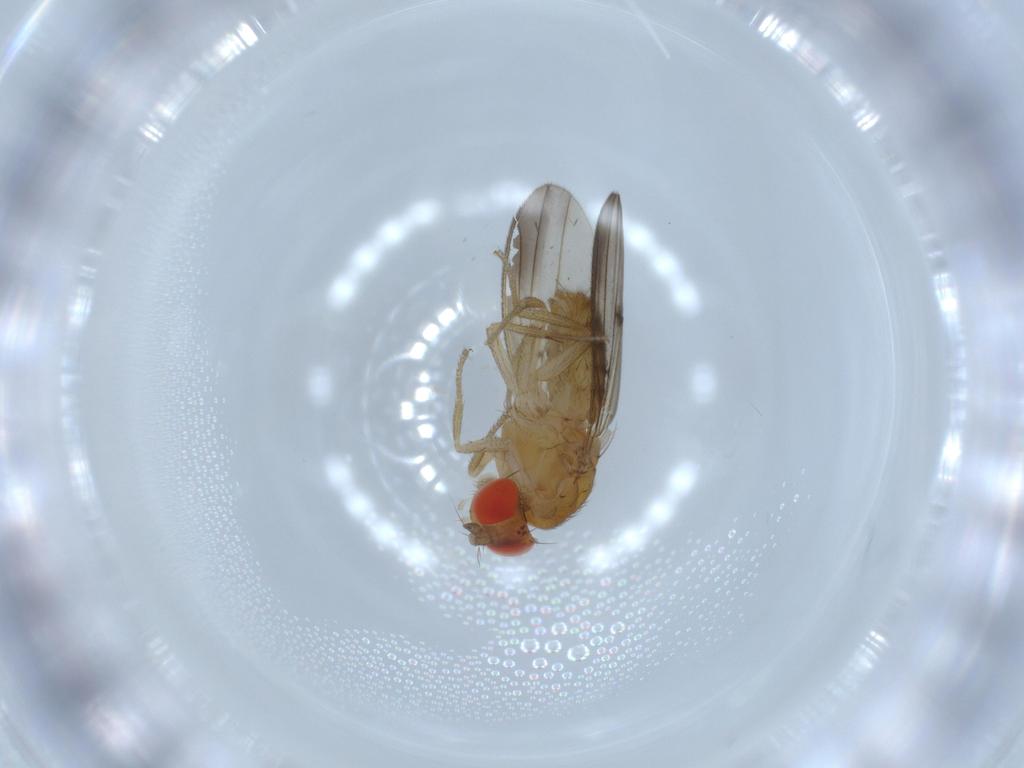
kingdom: Animalia
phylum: Arthropoda
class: Insecta
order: Diptera
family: Drosophilidae
